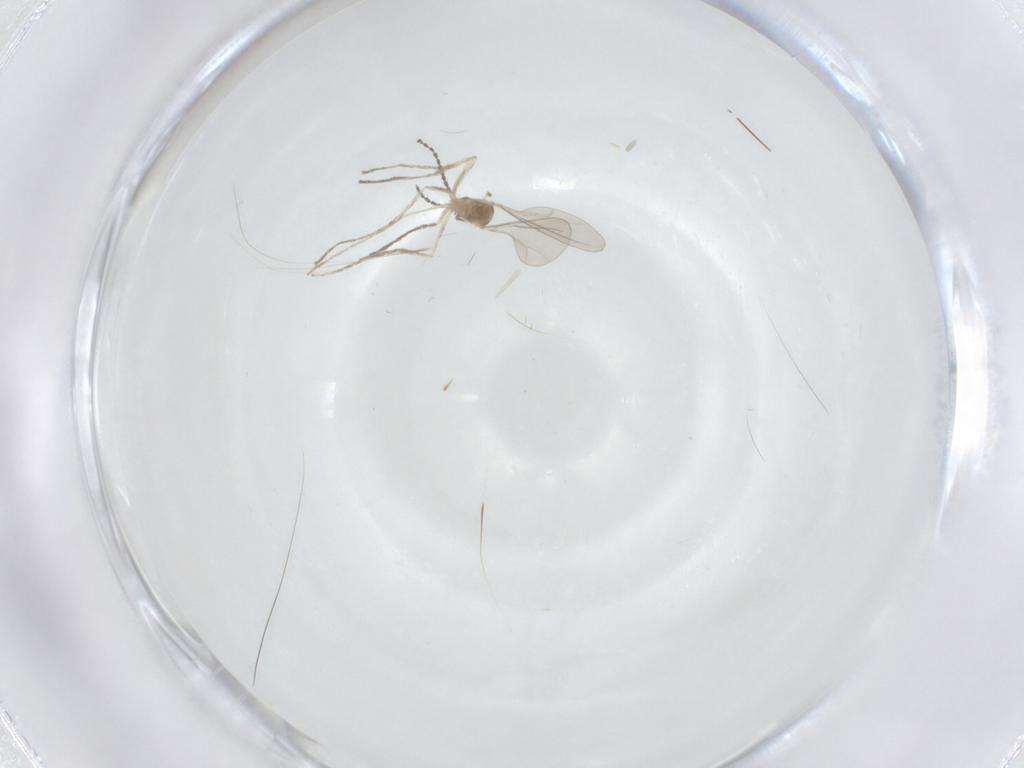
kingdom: Animalia
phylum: Arthropoda
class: Insecta
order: Diptera
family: Cecidomyiidae
